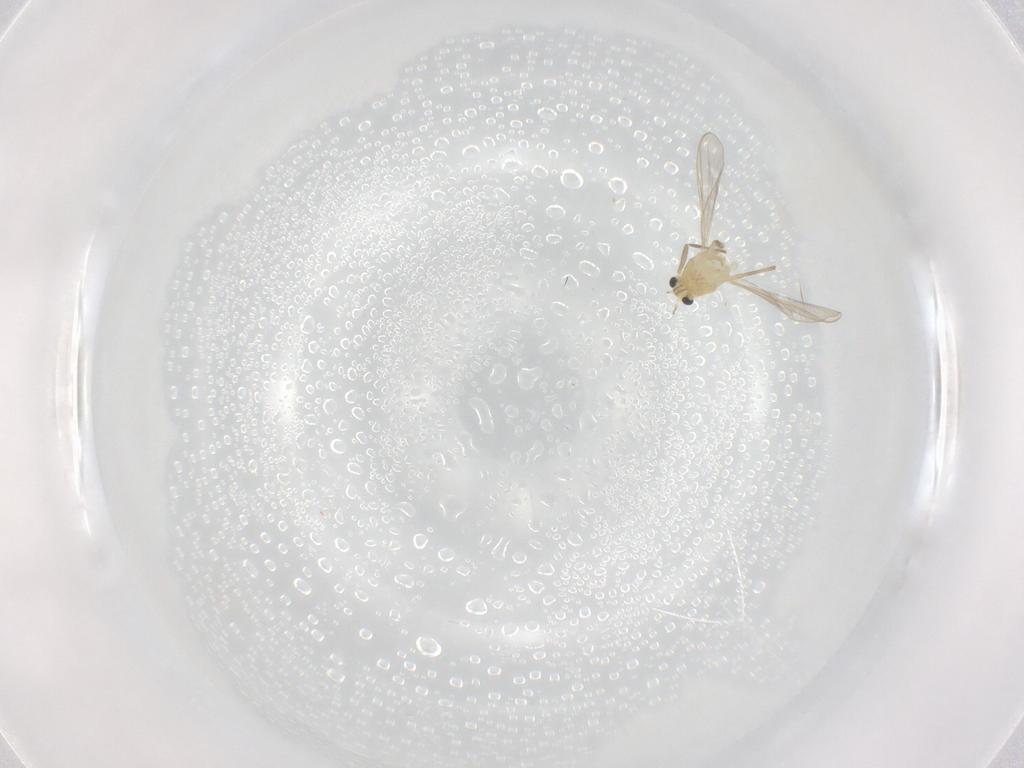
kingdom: Animalia
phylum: Arthropoda
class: Insecta
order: Diptera
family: Chironomidae
